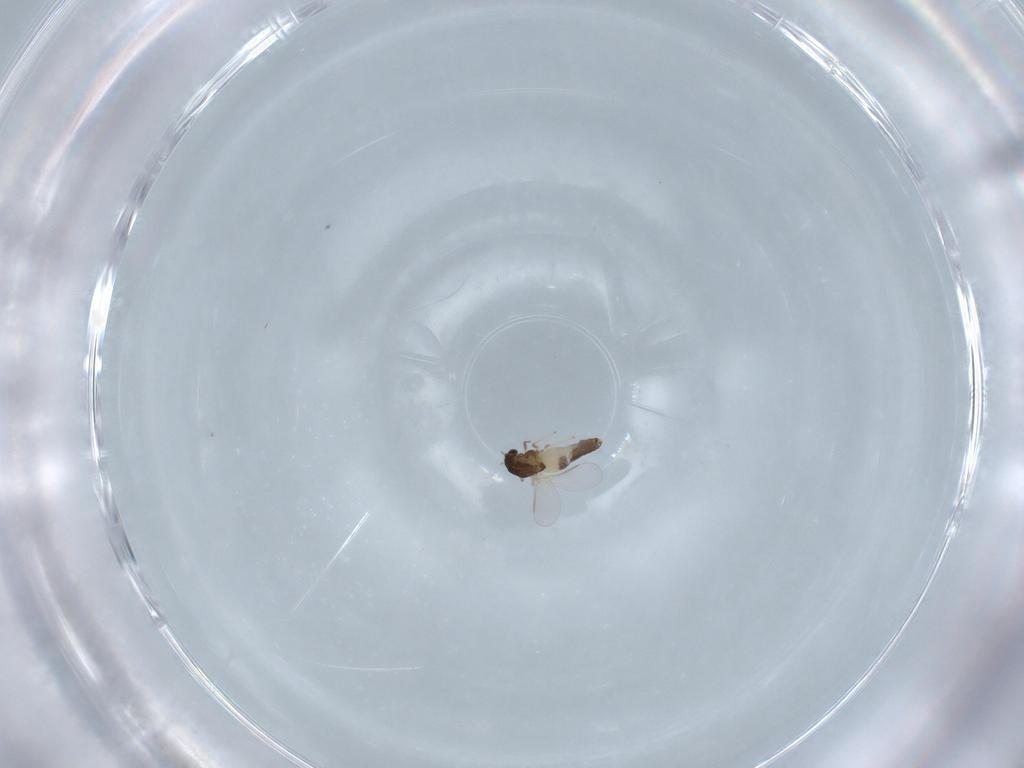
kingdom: Animalia
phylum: Arthropoda
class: Insecta
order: Diptera
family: Chironomidae
